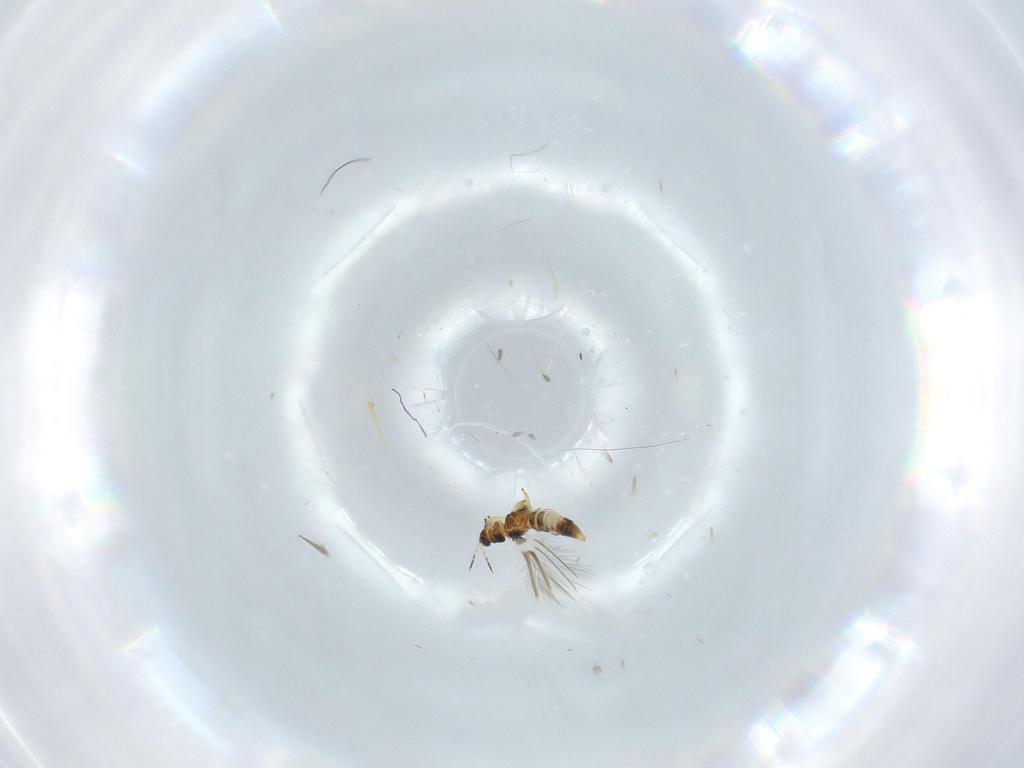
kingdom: Animalia
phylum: Arthropoda
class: Insecta
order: Thysanoptera
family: Thripidae
